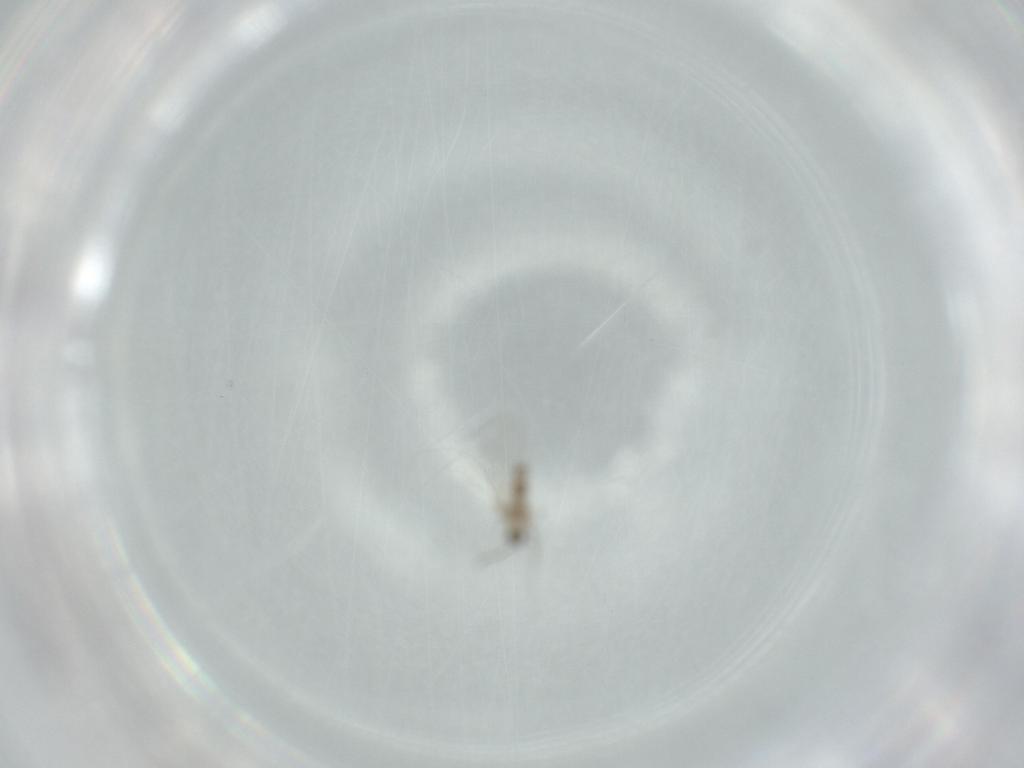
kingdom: Animalia
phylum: Arthropoda
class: Insecta
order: Diptera
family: Cecidomyiidae
